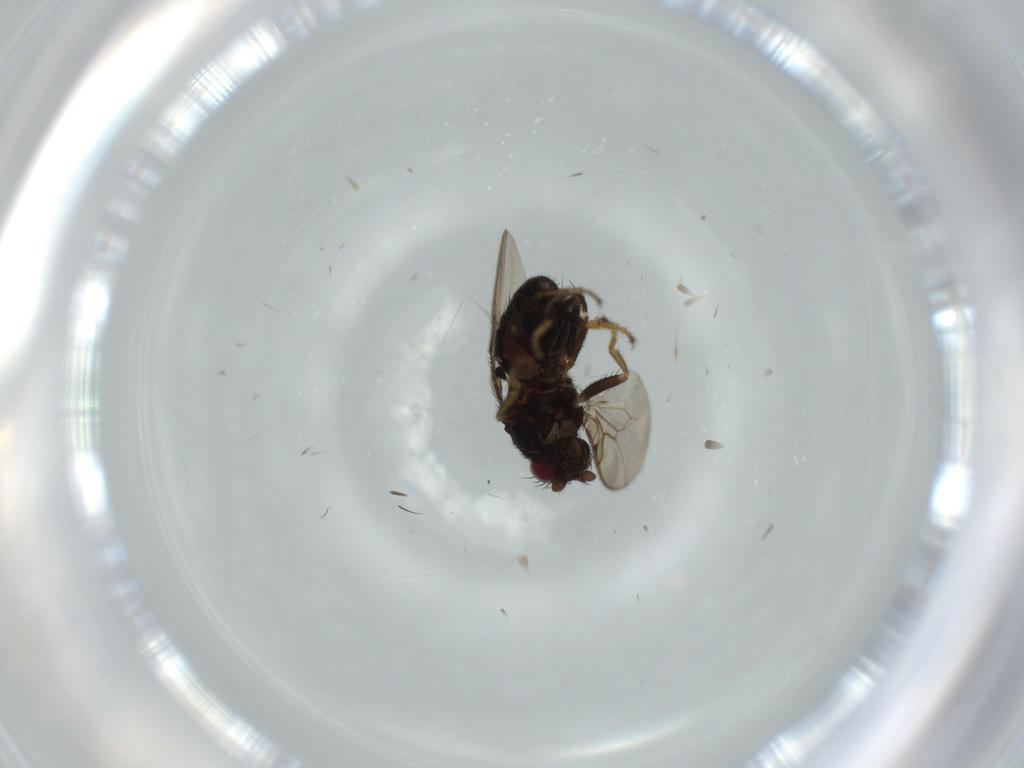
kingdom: Animalia
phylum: Arthropoda
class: Insecta
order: Diptera
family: Sphaeroceridae
